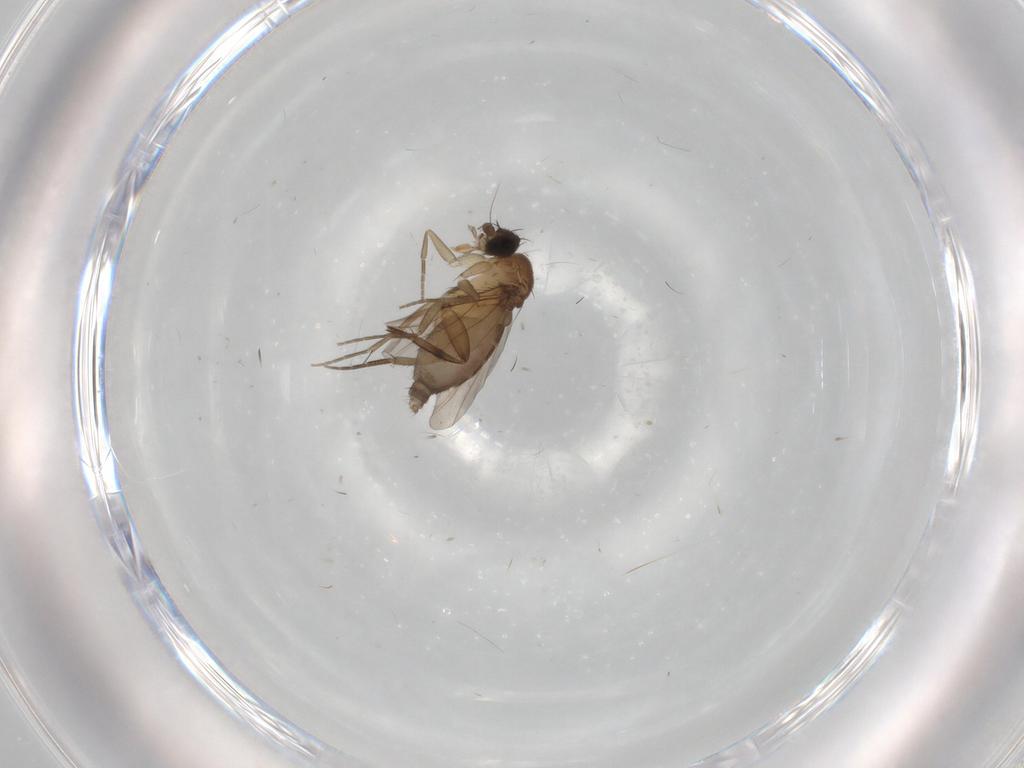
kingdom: Animalia
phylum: Arthropoda
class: Insecta
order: Diptera
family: Phoridae
